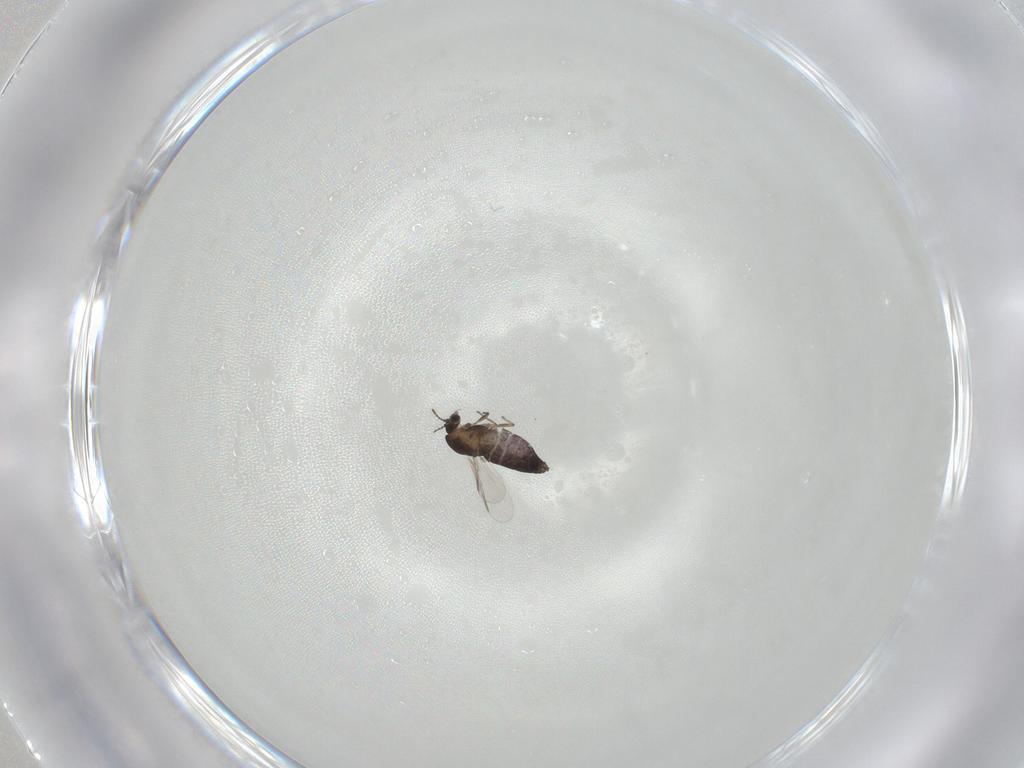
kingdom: Animalia
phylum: Arthropoda
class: Insecta
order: Diptera
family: Chironomidae
